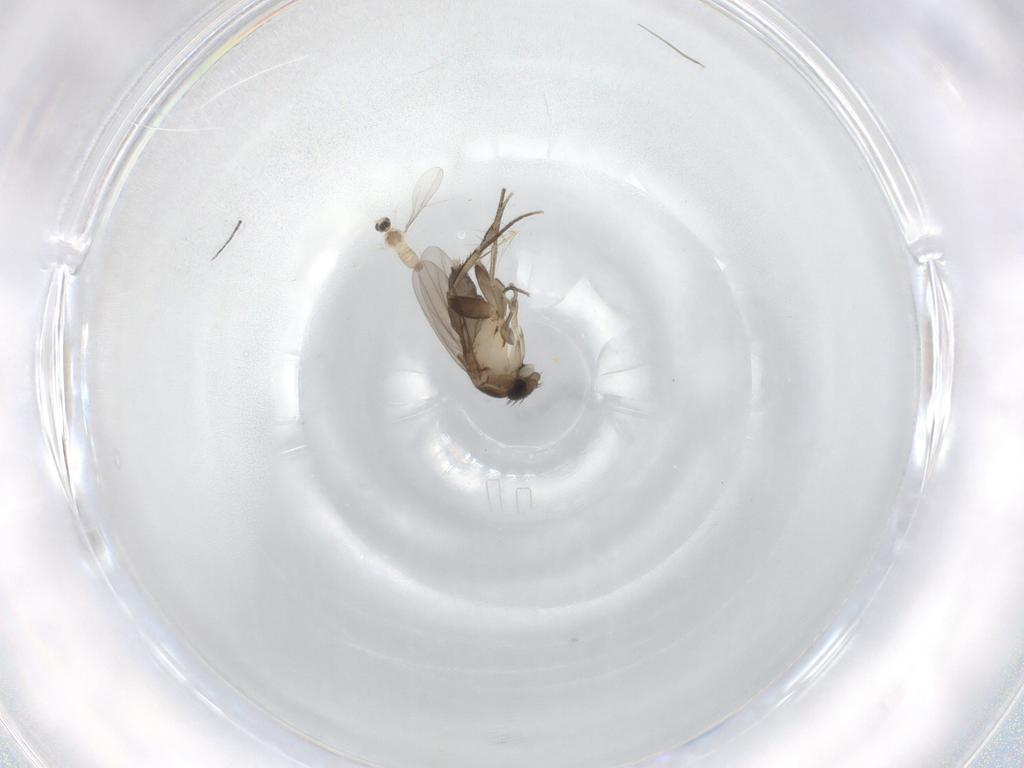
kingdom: Animalia
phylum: Arthropoda
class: Insecta
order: Diptera
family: Phoridae
